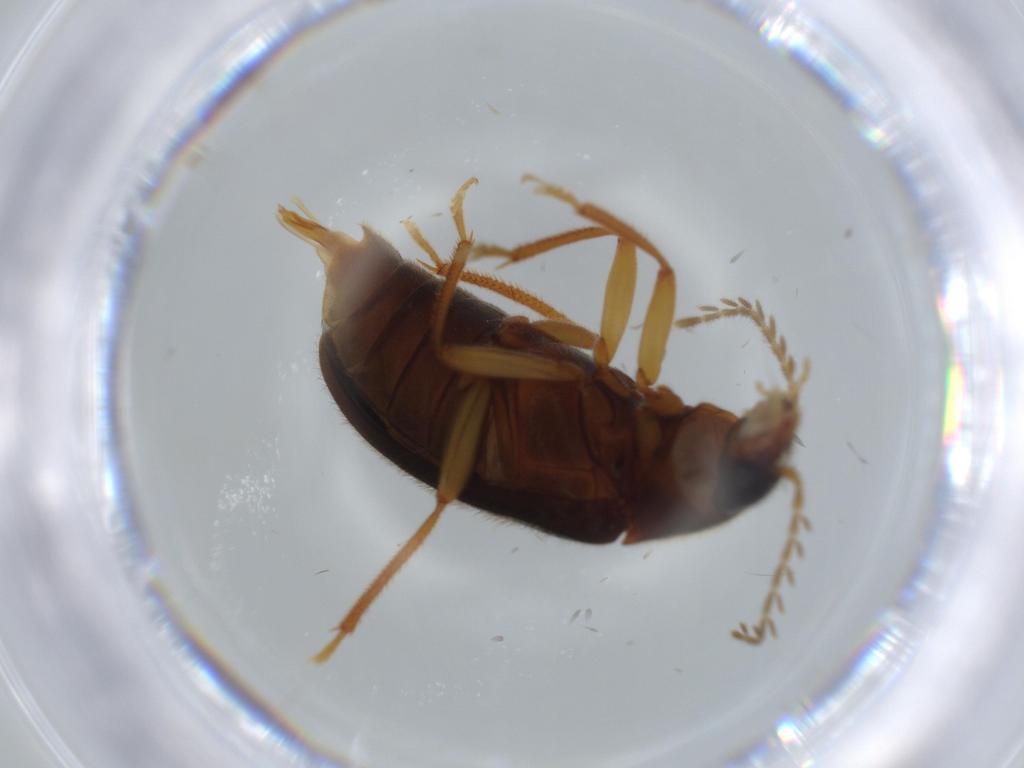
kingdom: Animalia
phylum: Arthropoda
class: Insecta
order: Coleoptera
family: Ptilodactylidae
